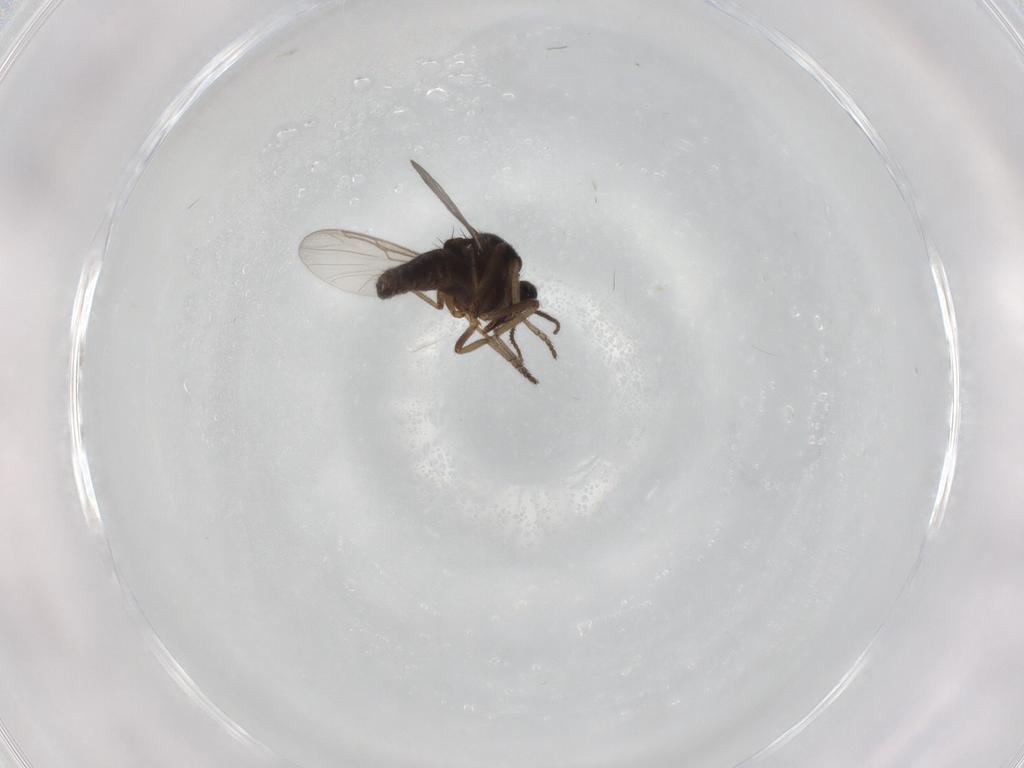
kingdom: Animalia
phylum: Arthropoda
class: Insecta
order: Diptera
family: Ceratopogonidae
